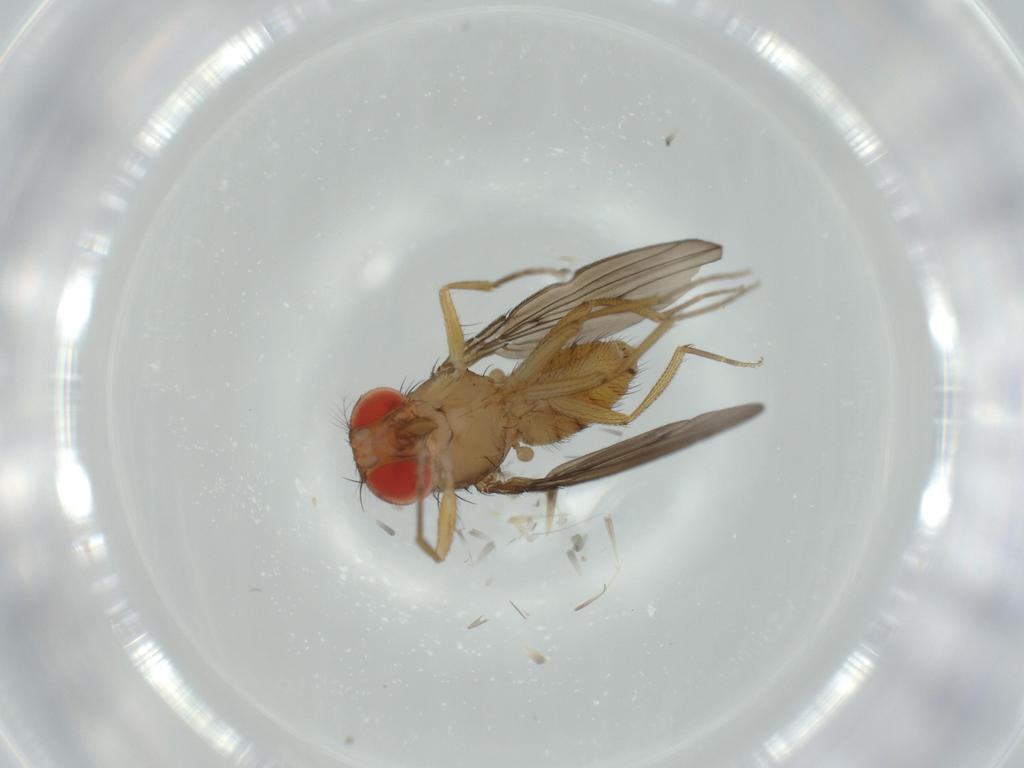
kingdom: Animalia
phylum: Arthropoda
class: Insecta
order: Diptera
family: Drosophilidae
